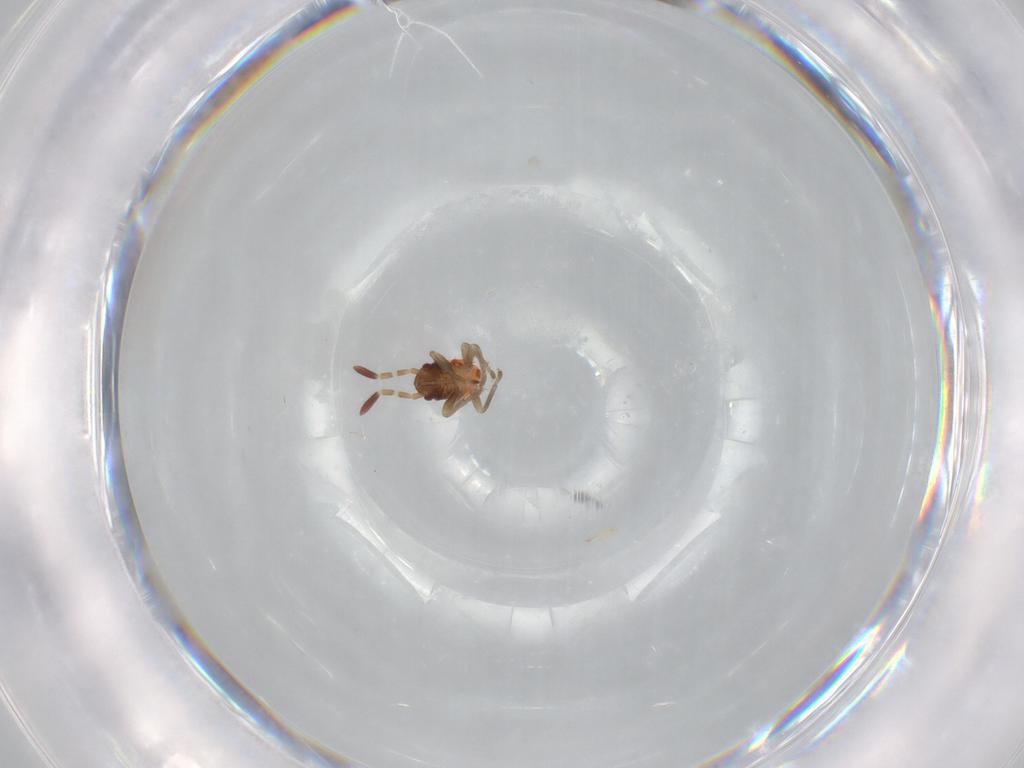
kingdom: Animalia
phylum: Arthropoda
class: Insecta
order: Hemiptera
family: Rhyparochromidae
